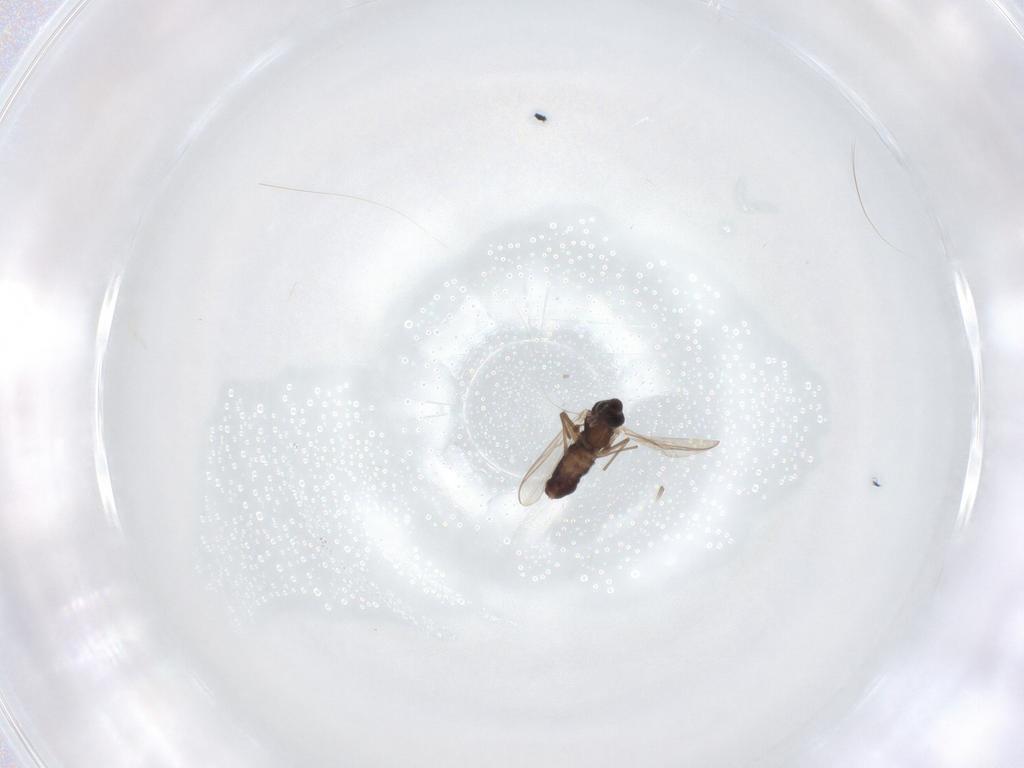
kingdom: Animalia
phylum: Arthropoda
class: Insecta
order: Diptera
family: Chironomidae
